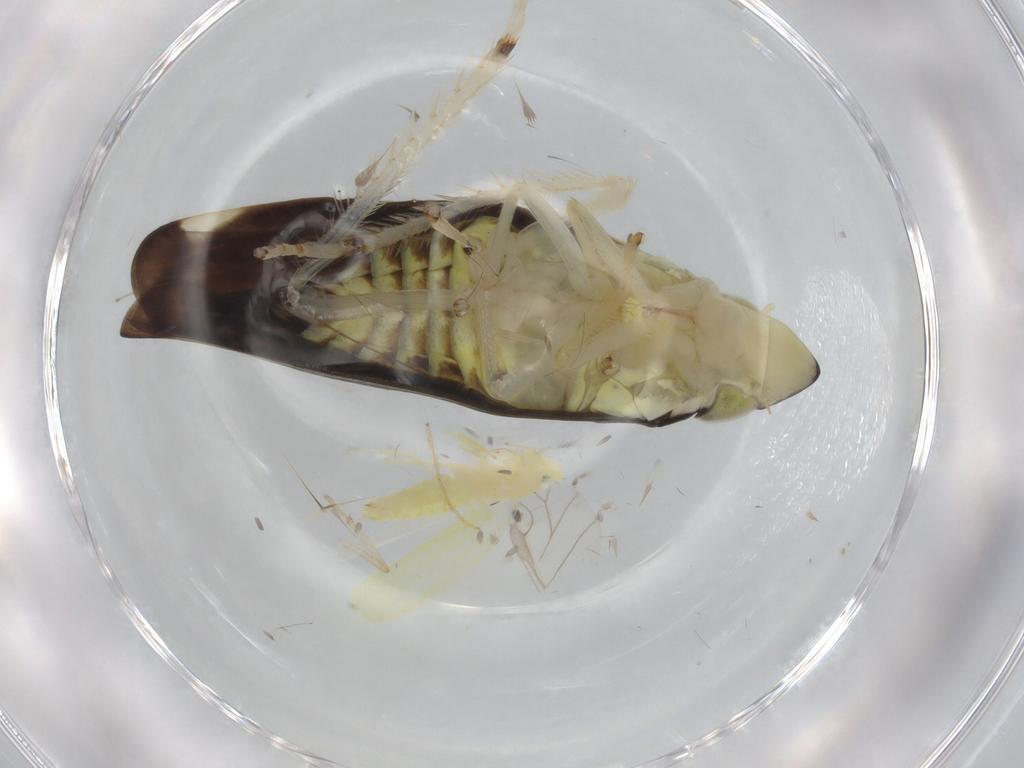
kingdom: Animalia
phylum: Arthropoda
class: Insecta
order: Hemiptera
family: Cicadellidae
